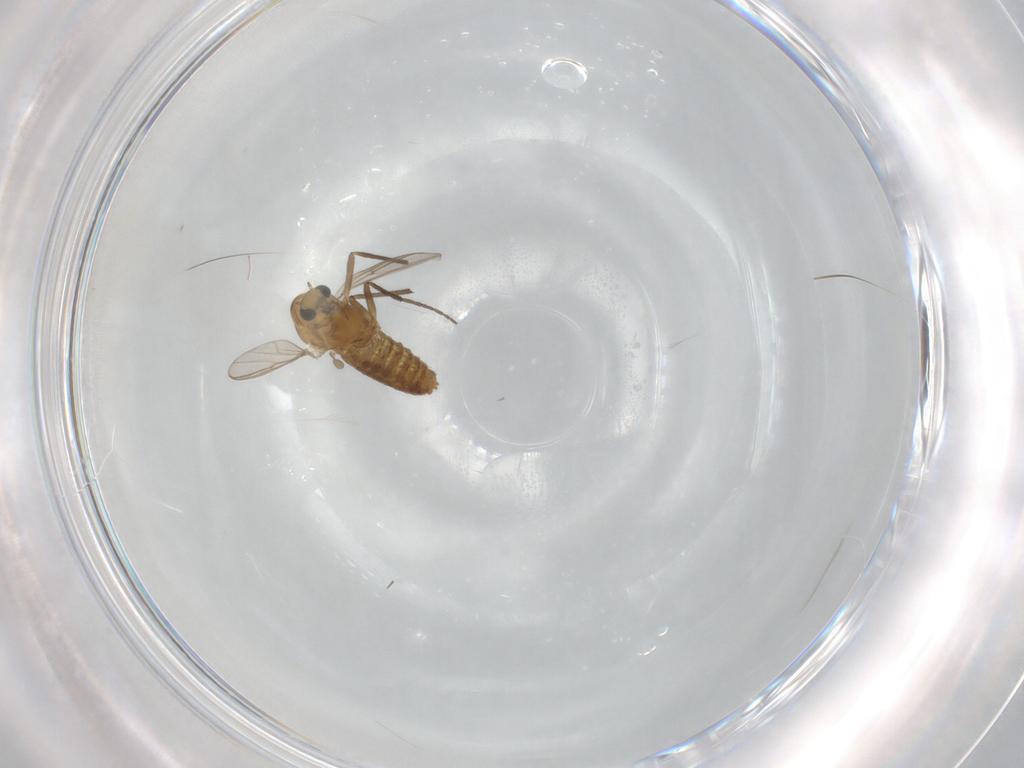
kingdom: Animalia
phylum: Arthropoda
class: Insecta
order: Diptera
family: Chironomidae
